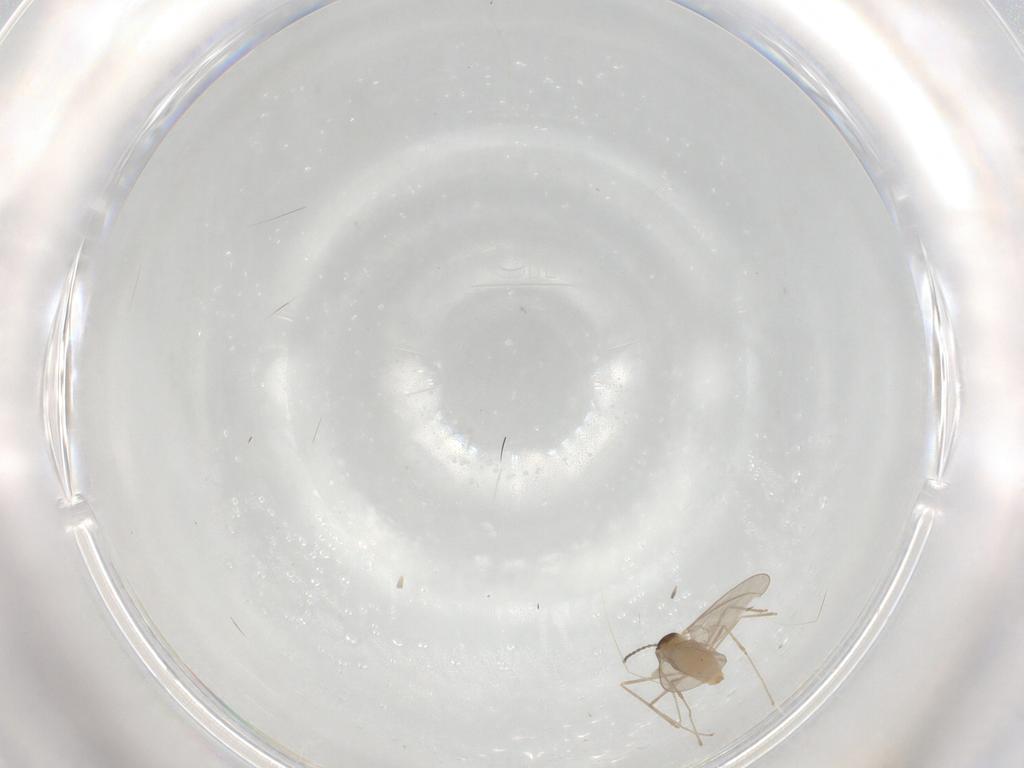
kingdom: Animalia
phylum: Arthropoda
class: Insecta
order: Diptera
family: Cecidomyiidae
